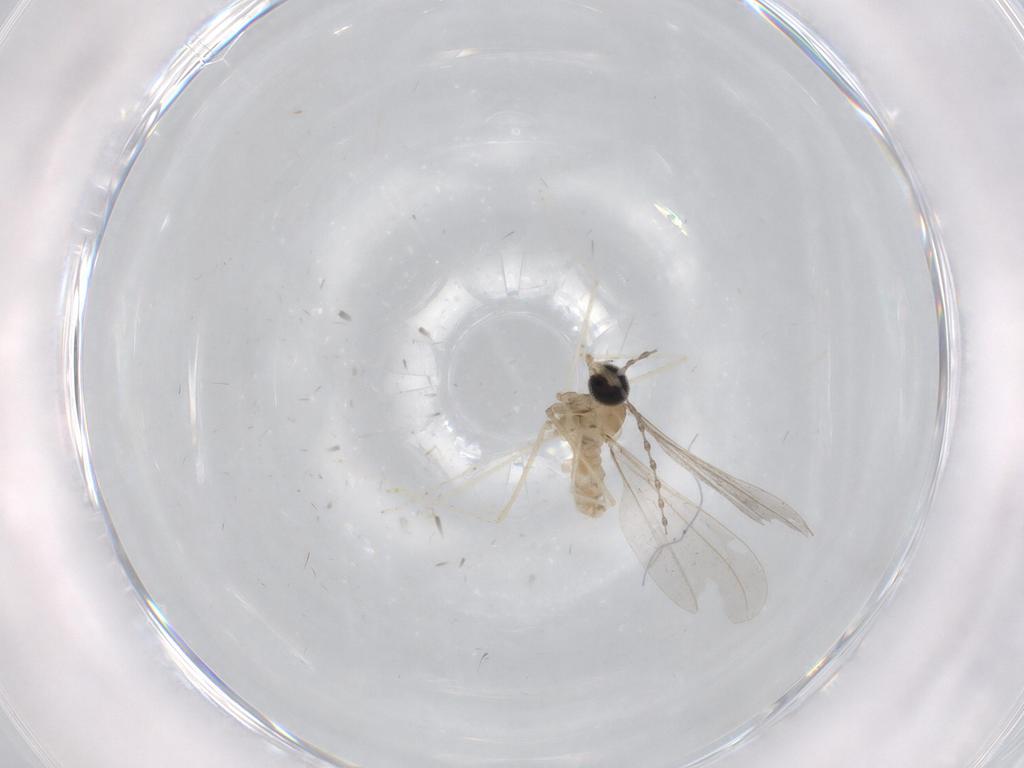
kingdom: Animalia
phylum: Arthropoda
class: Insecta
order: Diptera
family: Cecidomyiidae
